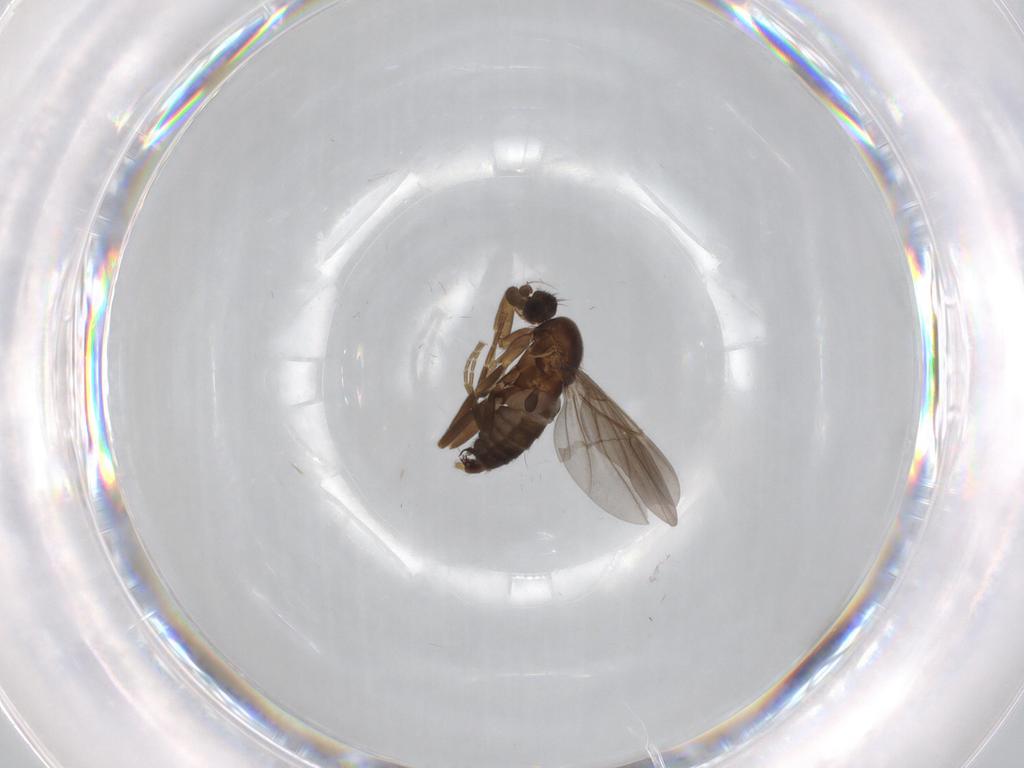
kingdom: Animalia
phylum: Arthropoda
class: Insecta
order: Diptera
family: Phoridae
